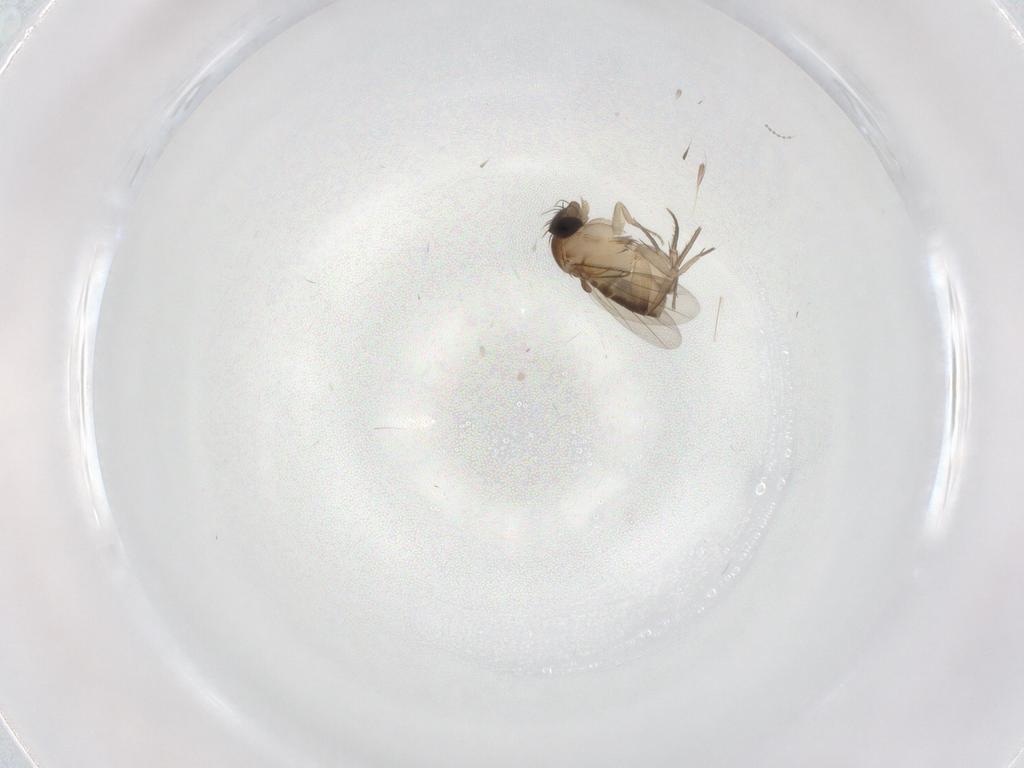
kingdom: Animalia
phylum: Arthropoda
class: Insecta
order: Diptera
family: Phoridae
